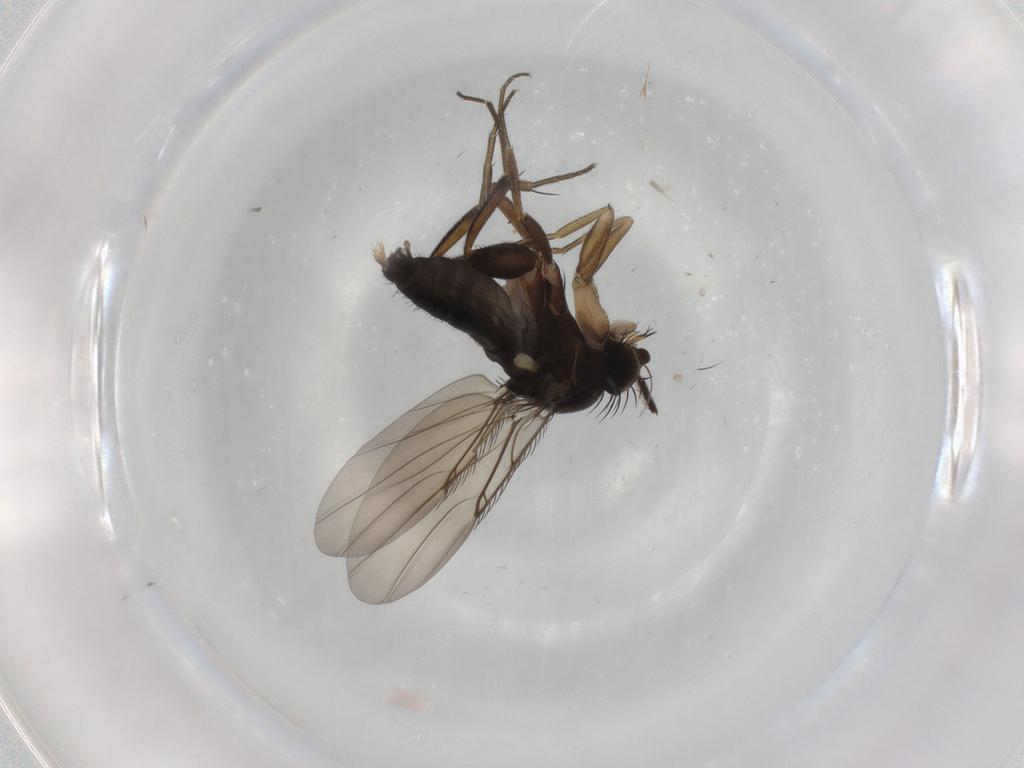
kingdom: Animalia
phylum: Arthropoda
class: Insecta
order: Diptera
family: Phoridae
